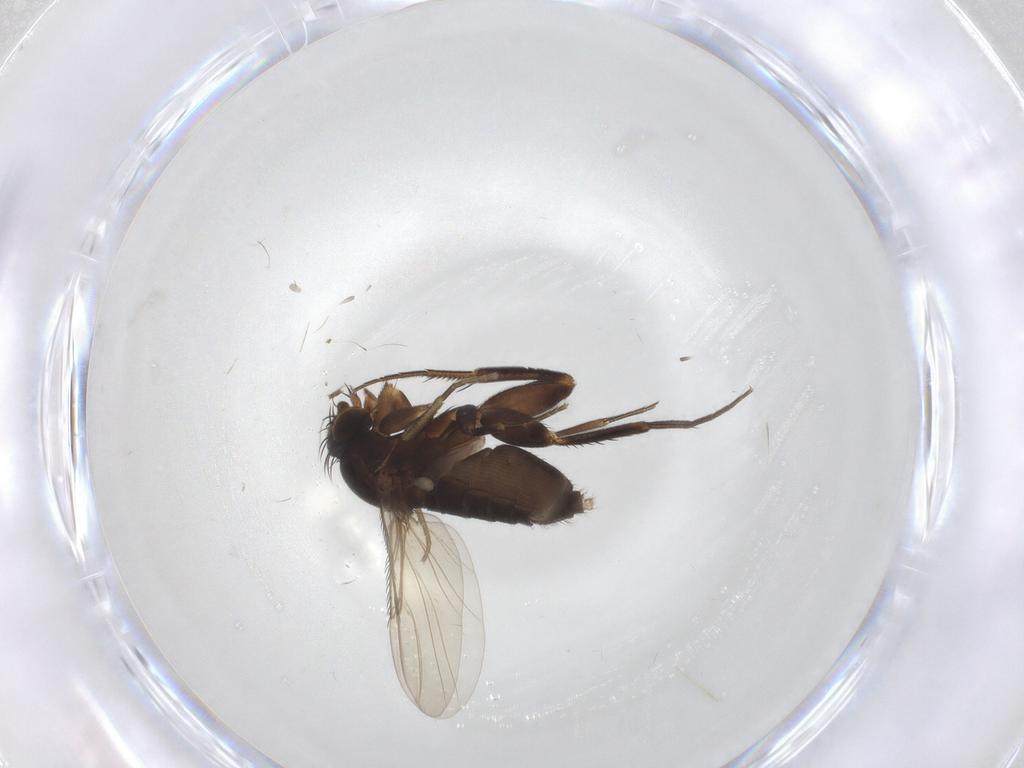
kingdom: Animalia
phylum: Arthropoda
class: Insecta
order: Diptera
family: Phoridae
